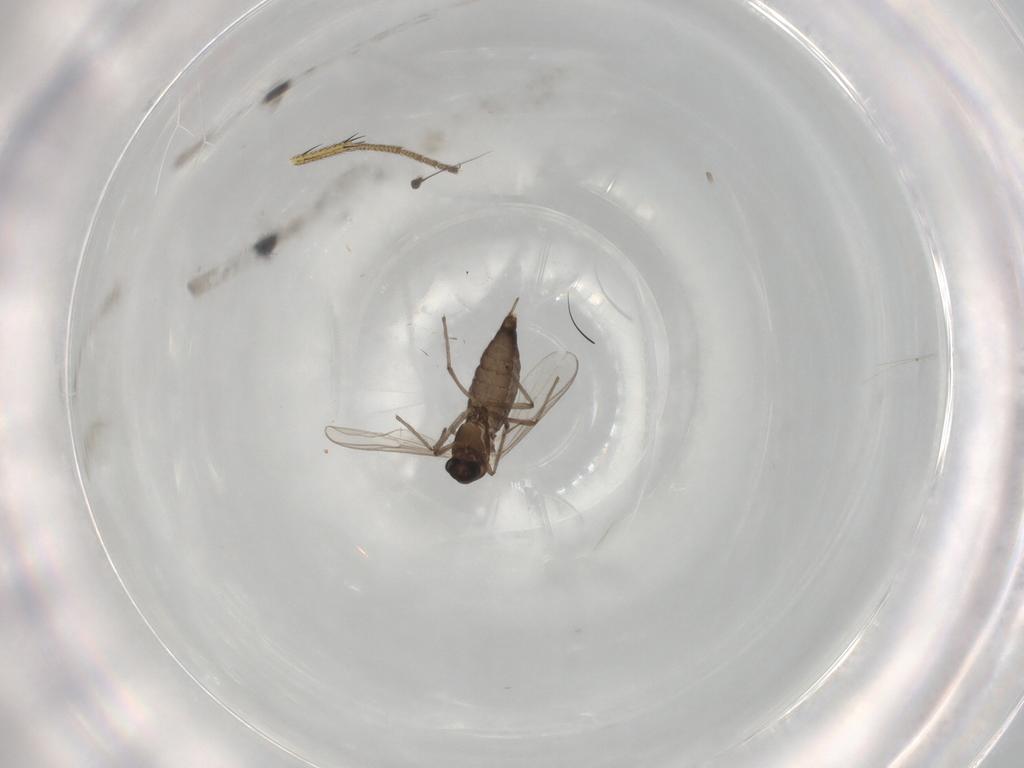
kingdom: Animalia
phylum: Arthropoda
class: Insecta
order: Diptera
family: Chironomidae
